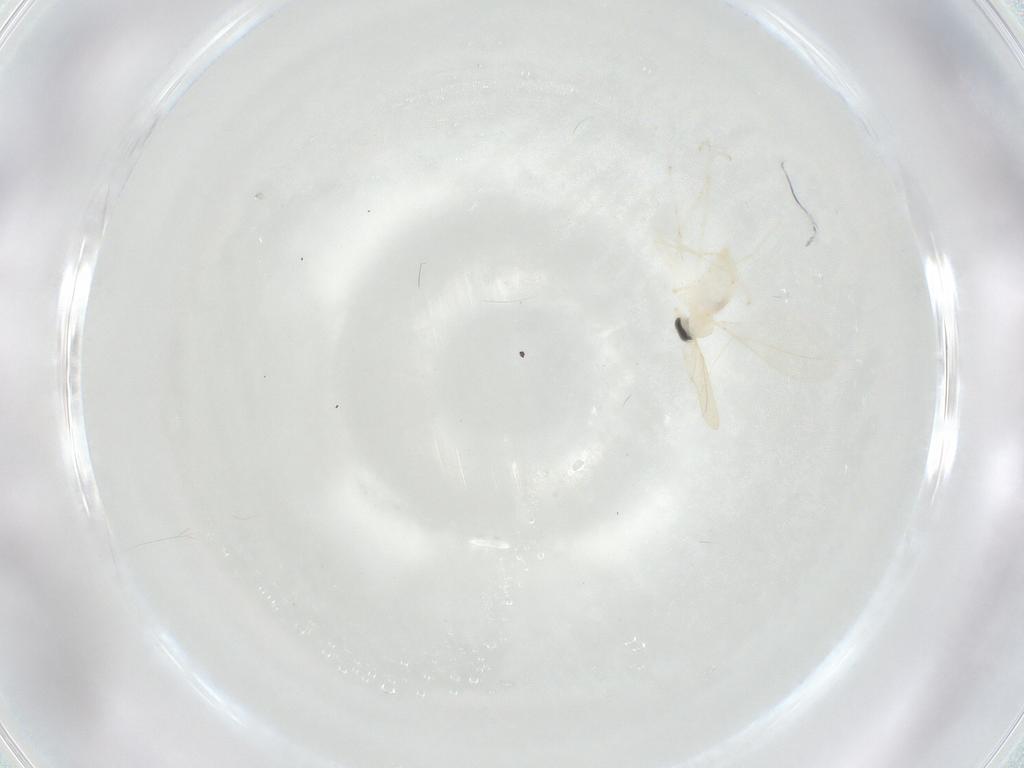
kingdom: Animalia
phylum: Arthropoda
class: Insecta
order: Diptera
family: Cecidomyiidae
